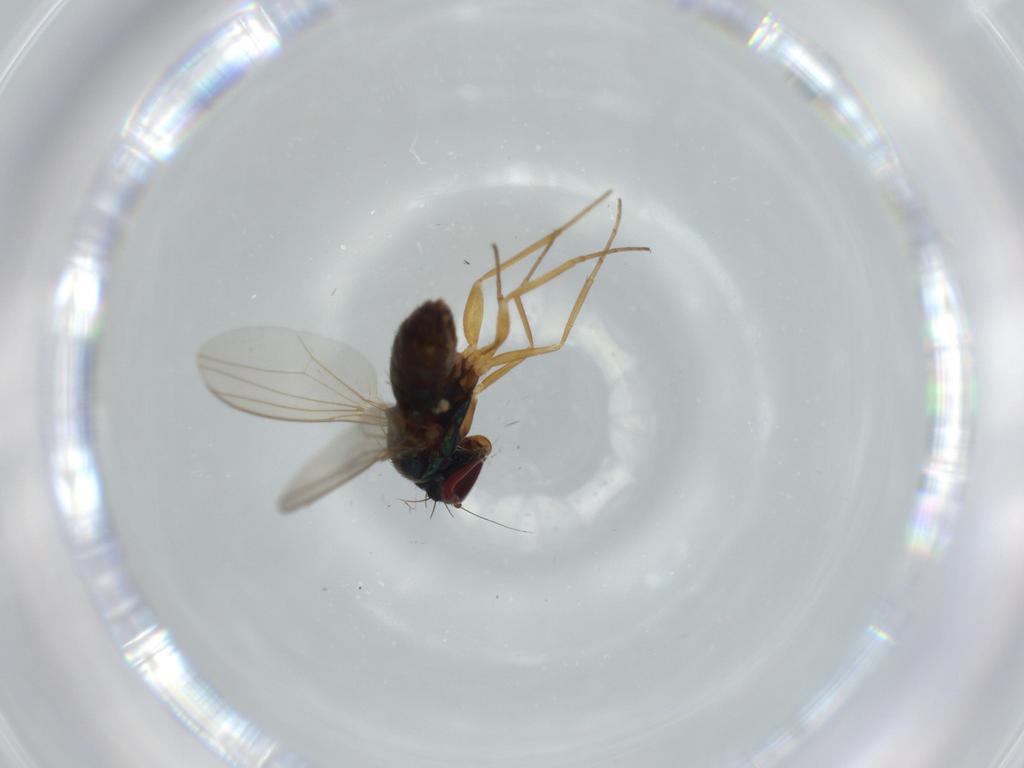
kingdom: Animalia
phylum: Arthropoda
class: Insecta
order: Diptera
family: Dolichopodidae
